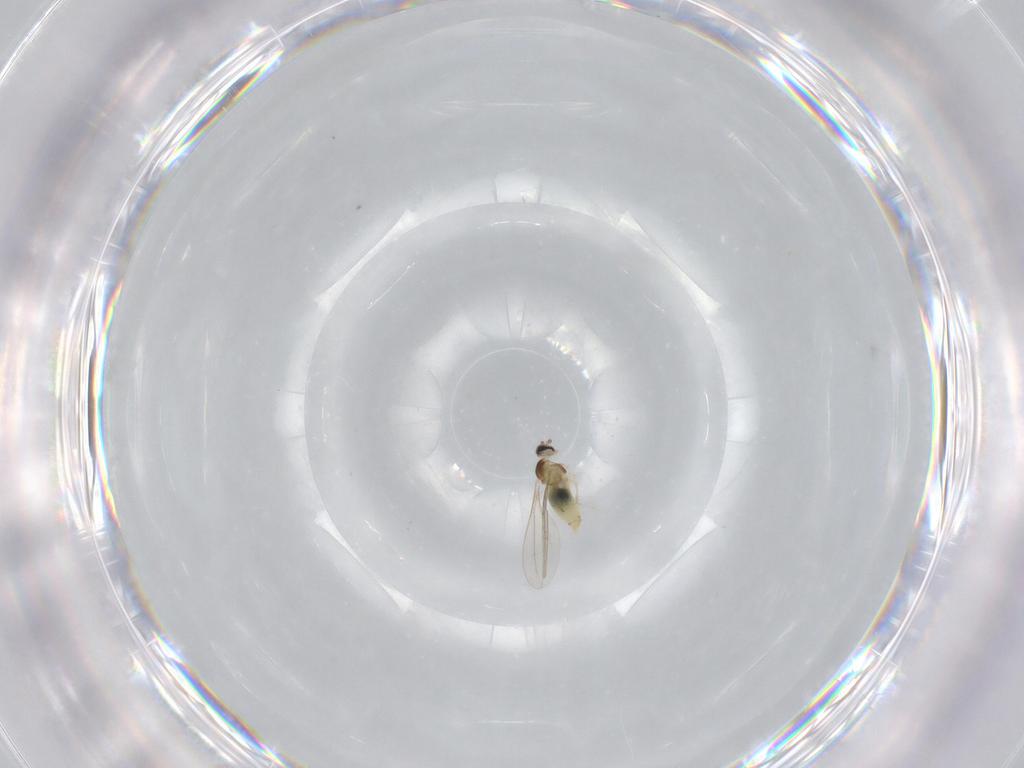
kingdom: Animalia
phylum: Arthropoda
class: Insecta
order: Diptera
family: Cecidomyiidae
